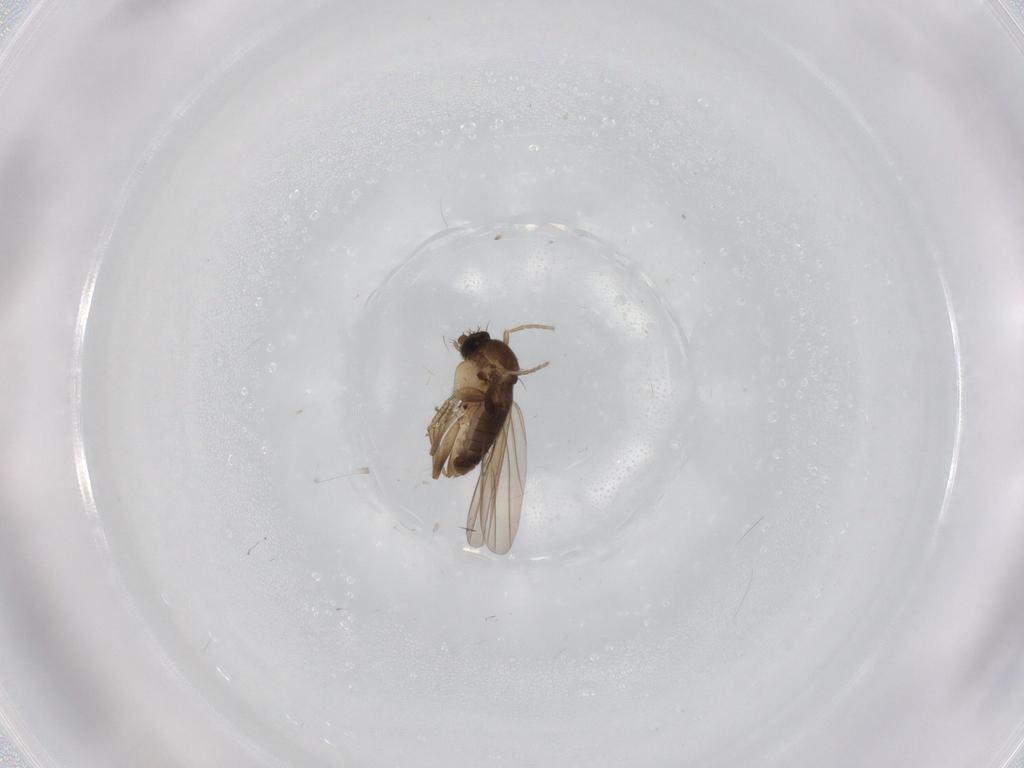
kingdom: Animalia
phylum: Arthropoda
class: Insecta
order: Diptera
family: Phoridae
